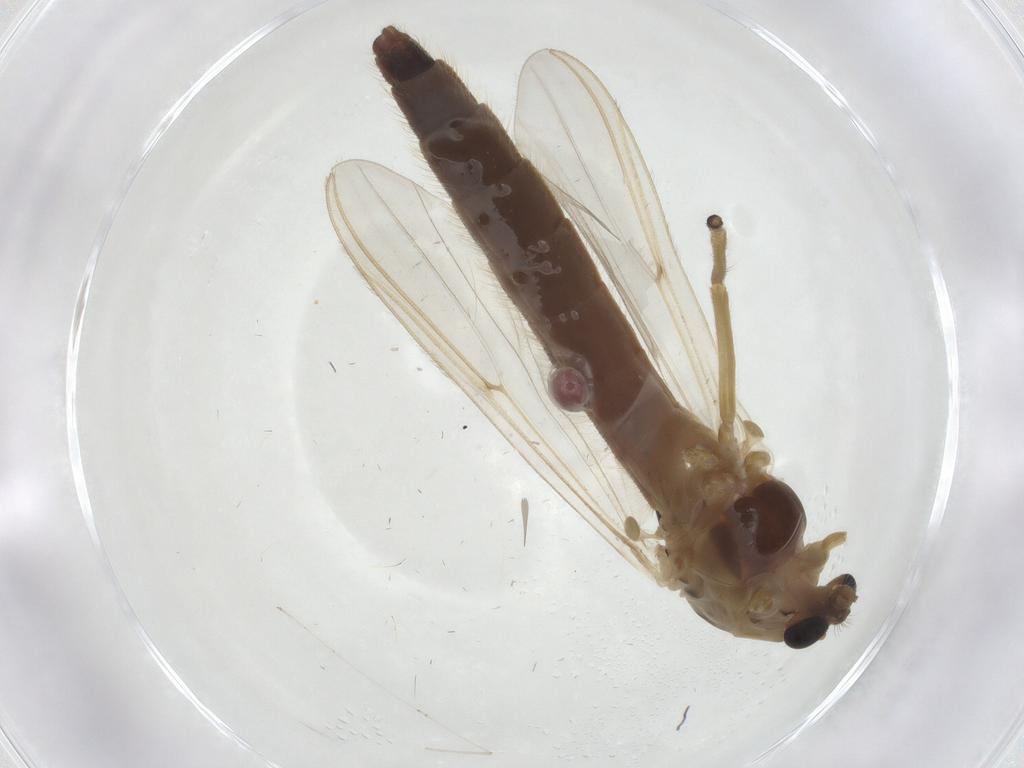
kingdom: Animalia
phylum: Arthropoda
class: Insecta
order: Diptera
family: Chironomidae
